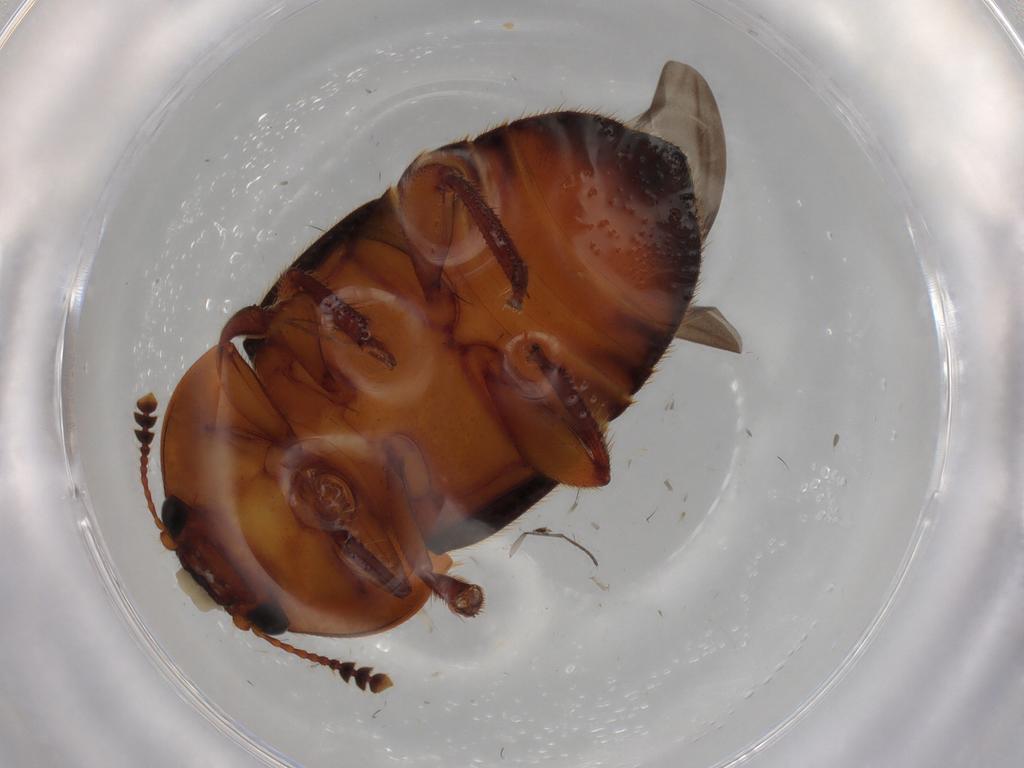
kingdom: Animalia
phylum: Arthropoda
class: Insecta
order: Coleoptera
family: Nitidulidae
